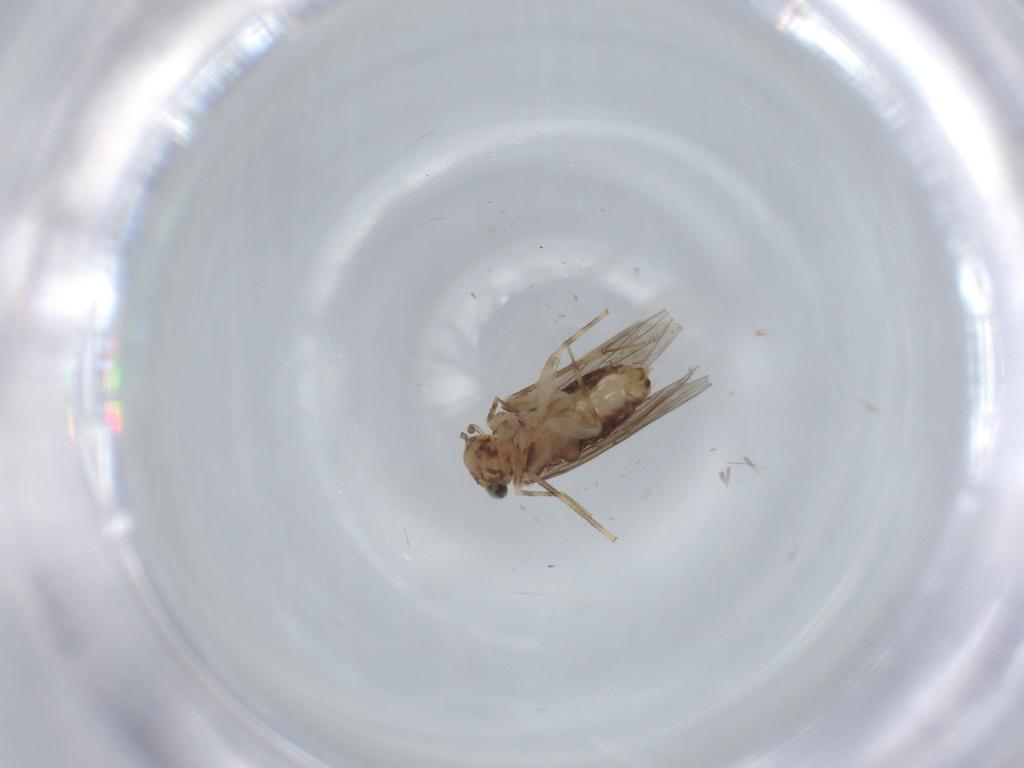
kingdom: Animalia
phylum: Arthropoda
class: Insecta
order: Psocodea
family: Lepidopsocidae
